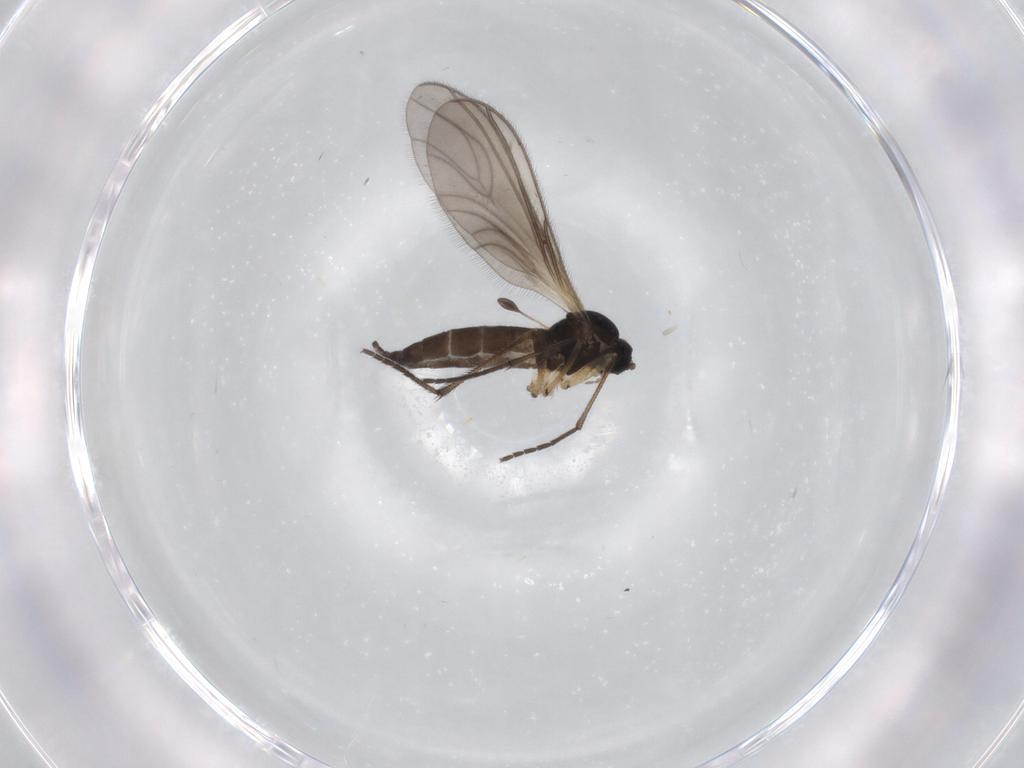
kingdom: Animalia
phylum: Arthropoda
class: Insecta
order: Diptera
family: Sciaridae
